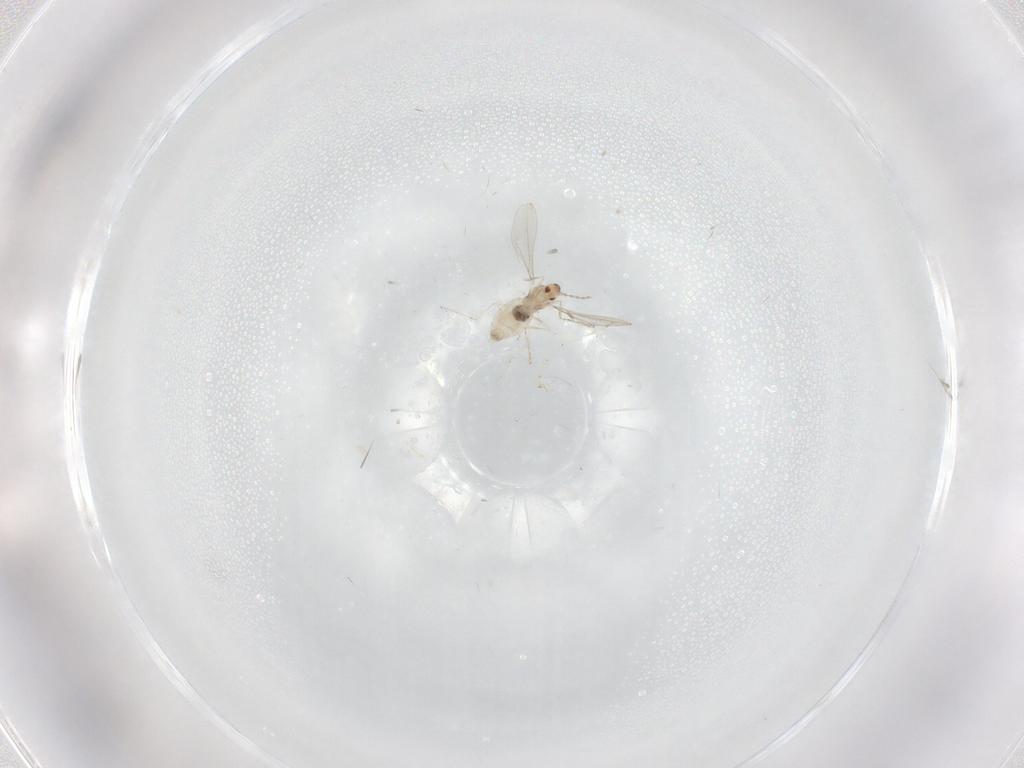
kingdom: Animalia
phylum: Arthropoda
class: Insecta
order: Diptera
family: Cecidomyiidae
